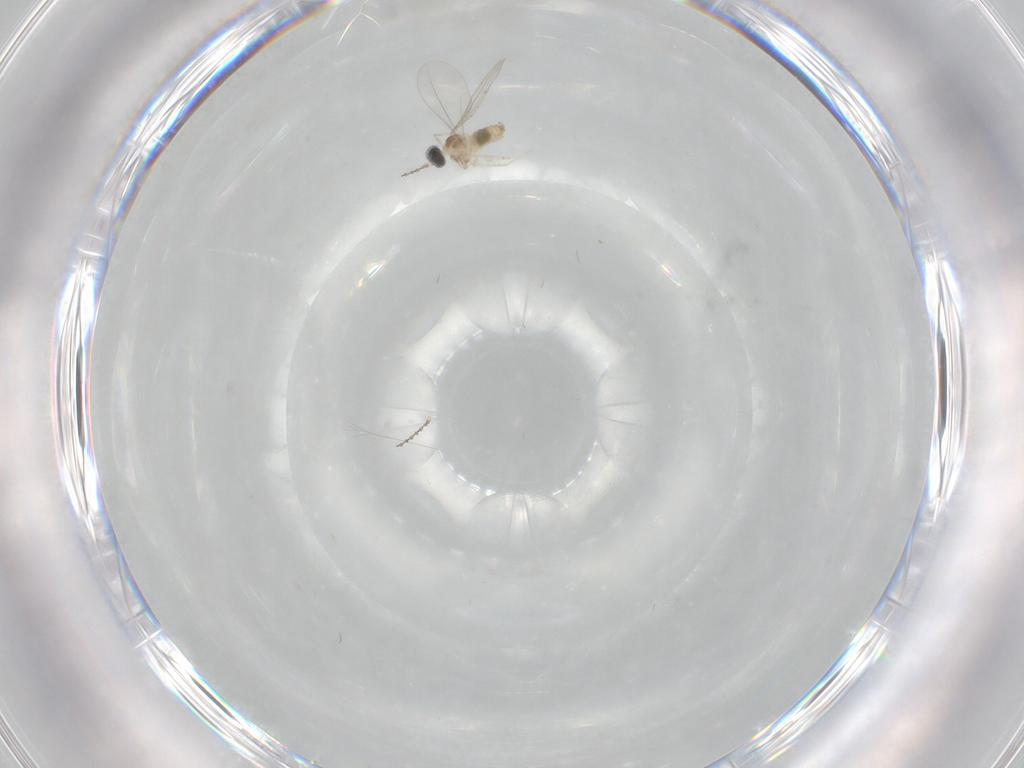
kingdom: Animalia
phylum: Arthropoda
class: Insecta
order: Diptera
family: Cecidomyiidae
